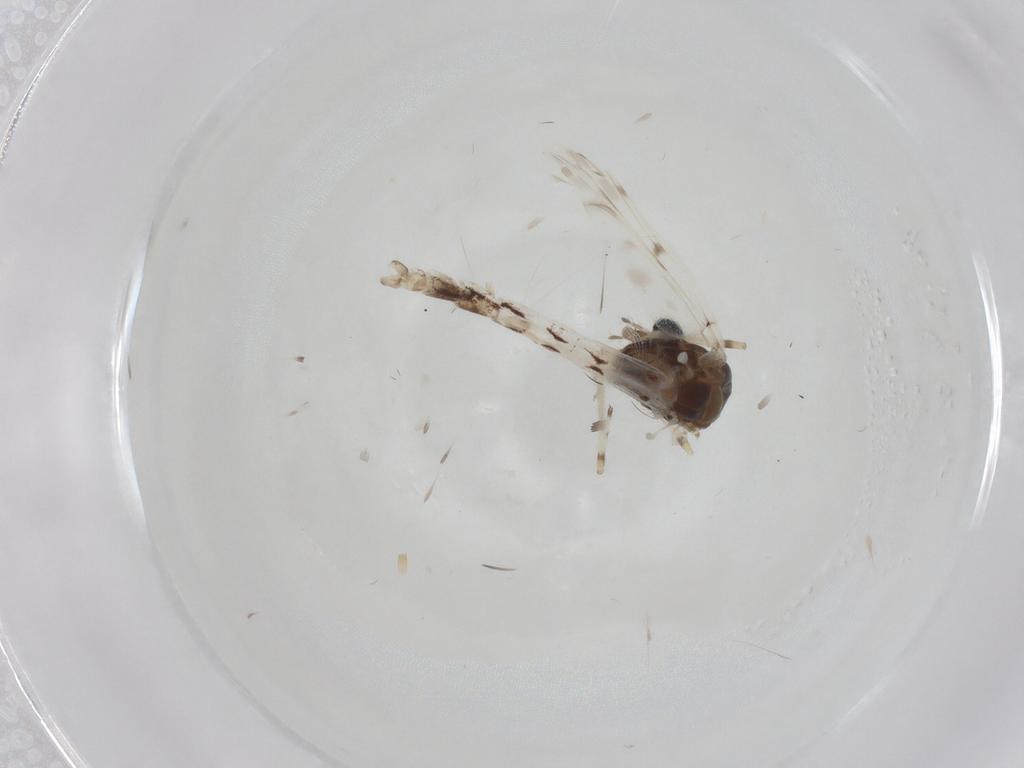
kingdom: Animalia
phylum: Arthropoda
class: Insecta
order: Diptera
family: Chironomidae
